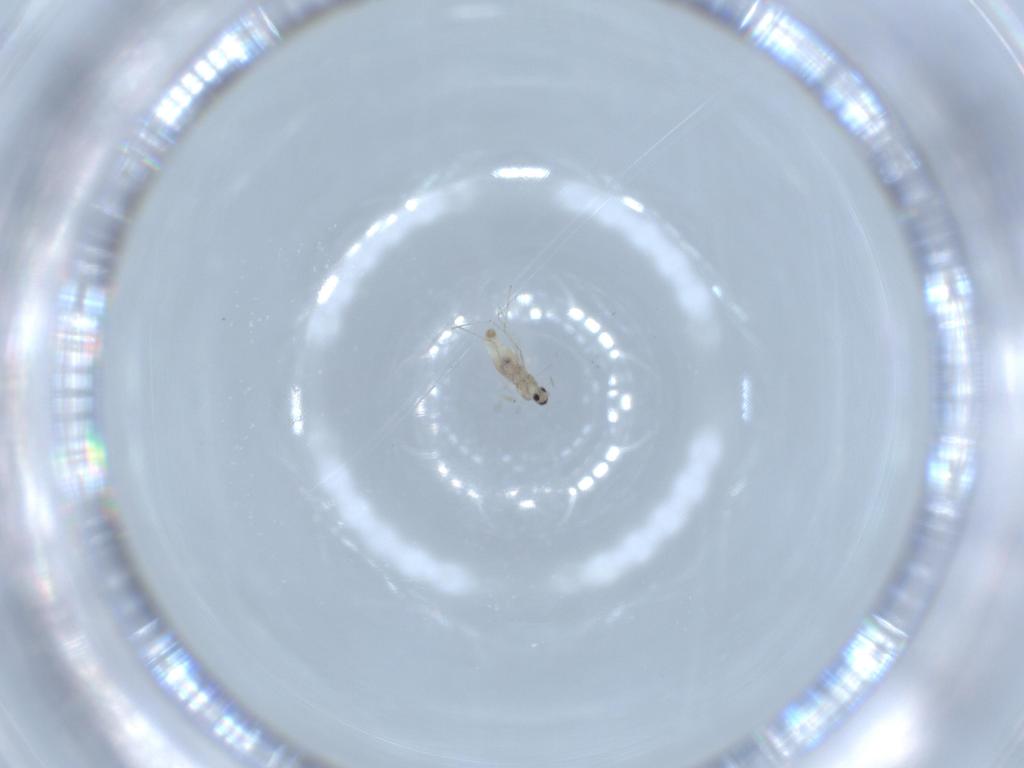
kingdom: Animalia
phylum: Arthropoda
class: Insecta
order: Diptera
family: Cecidomyiidae
